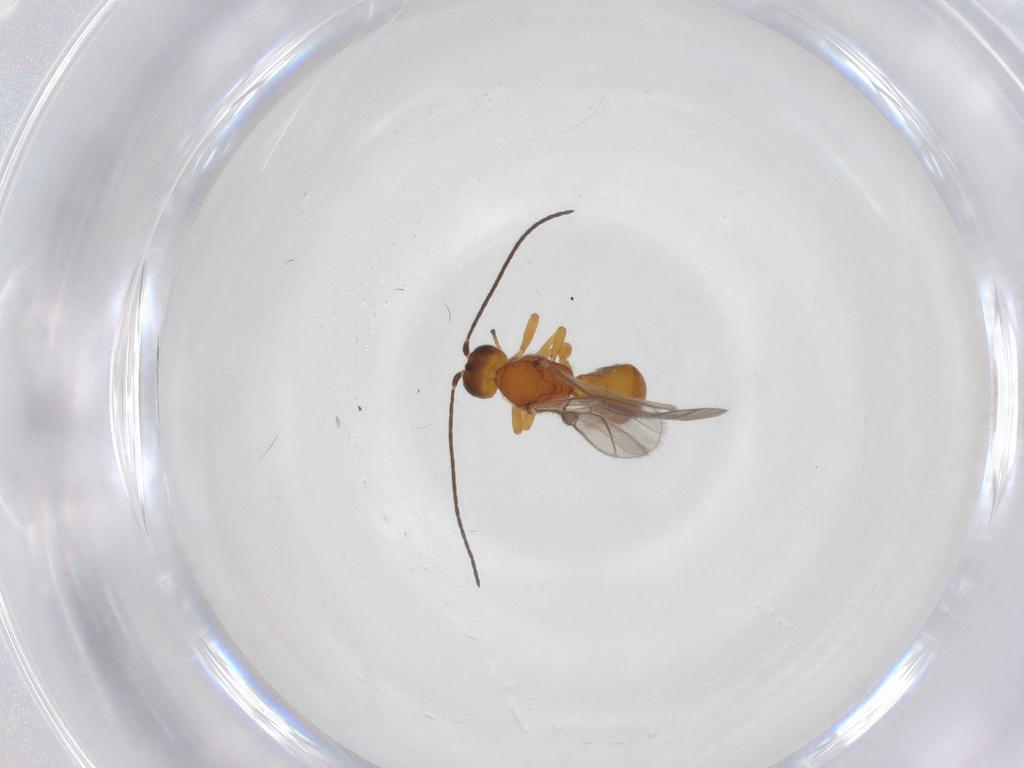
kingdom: Animalia
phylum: Arthropoda
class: Insecta
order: Hymenoptera
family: Braconidae
